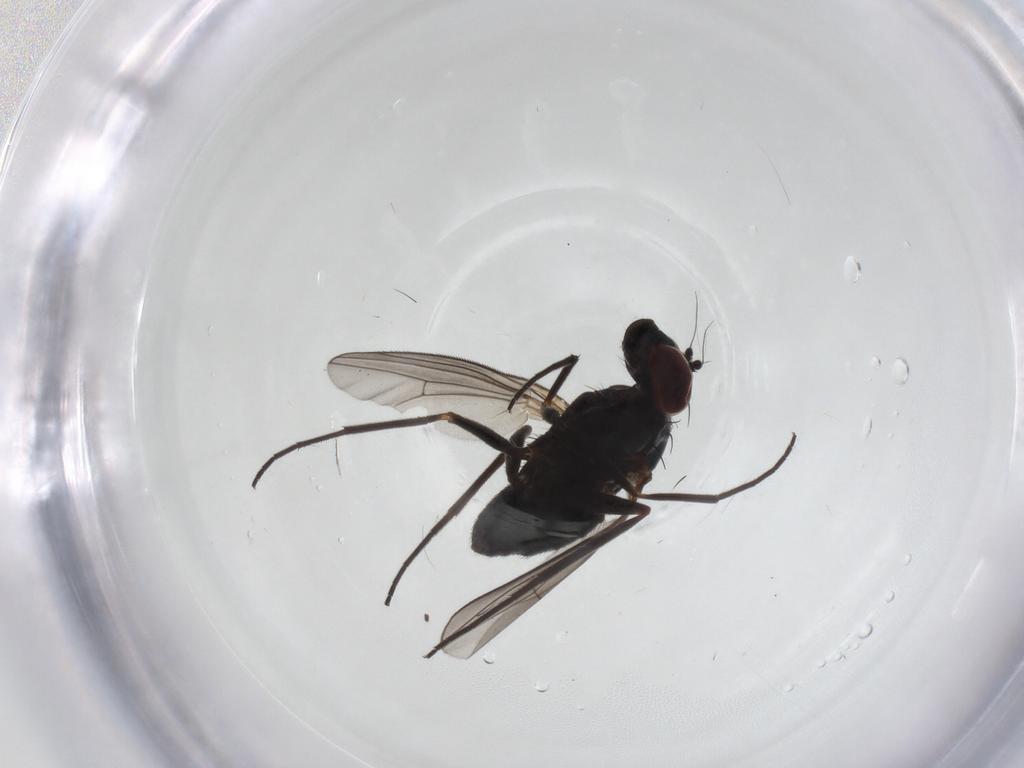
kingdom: Animalia
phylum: Arthropoda
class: Insecta
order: Diptera
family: Sciaridae
